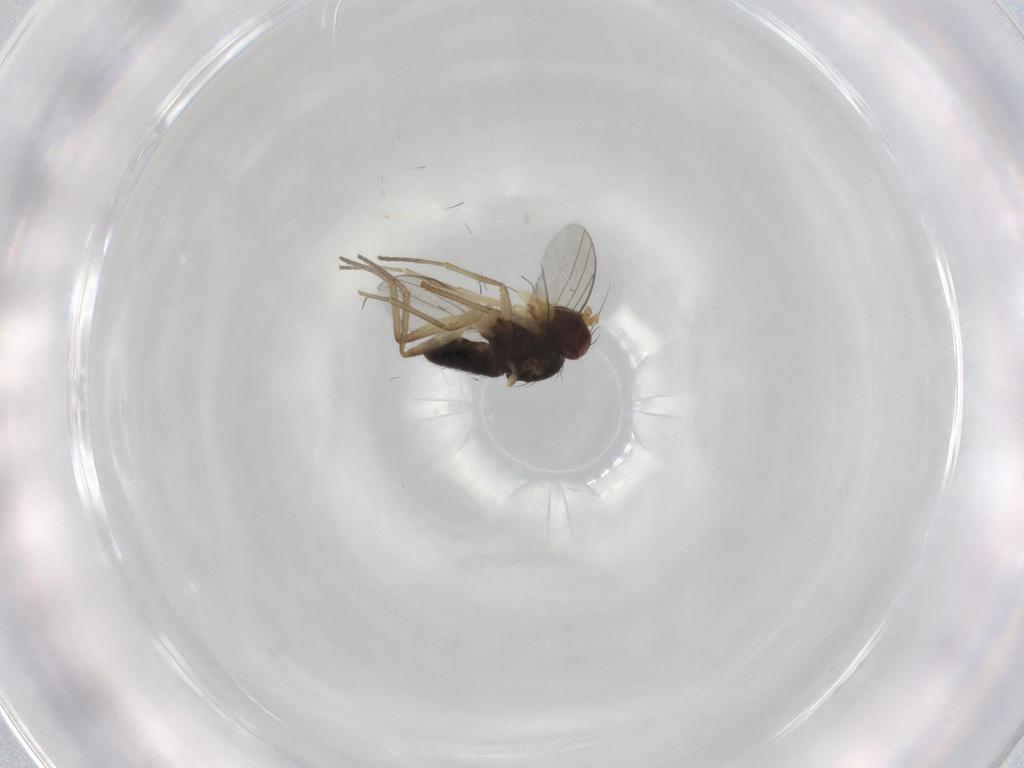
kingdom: Animalia
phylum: Arthropoda
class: Insecta
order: Diptera
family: Dolichopodidae
